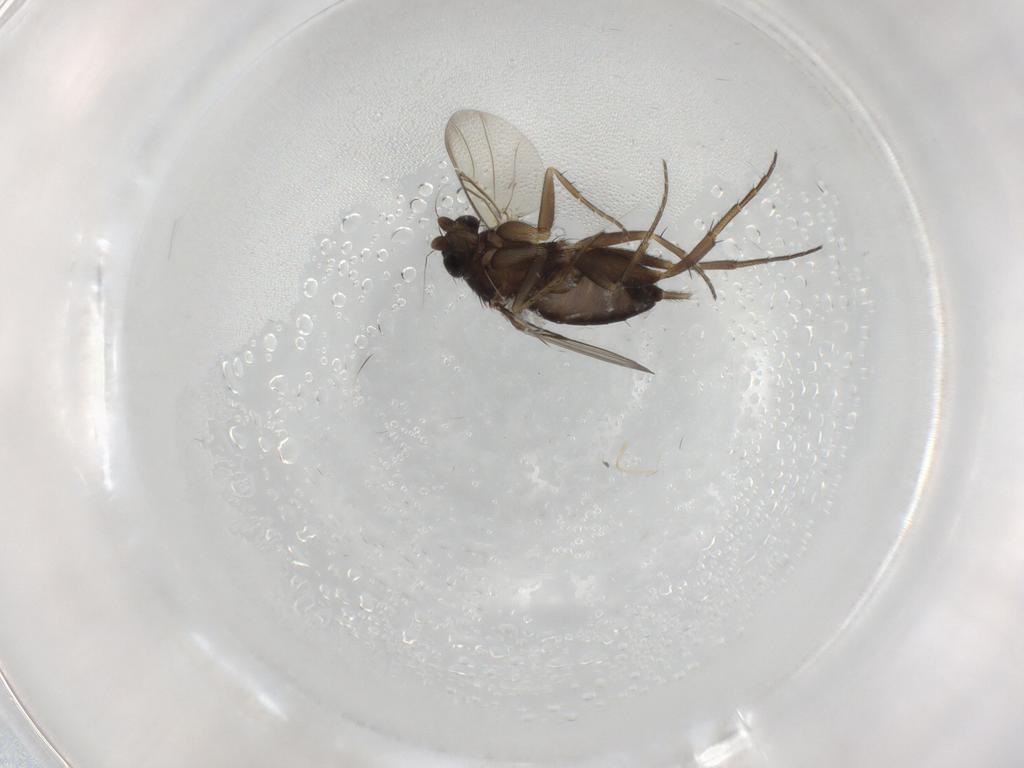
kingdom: Animalia
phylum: Arthropoda
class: Insecta
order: Diptera
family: Phoridae
